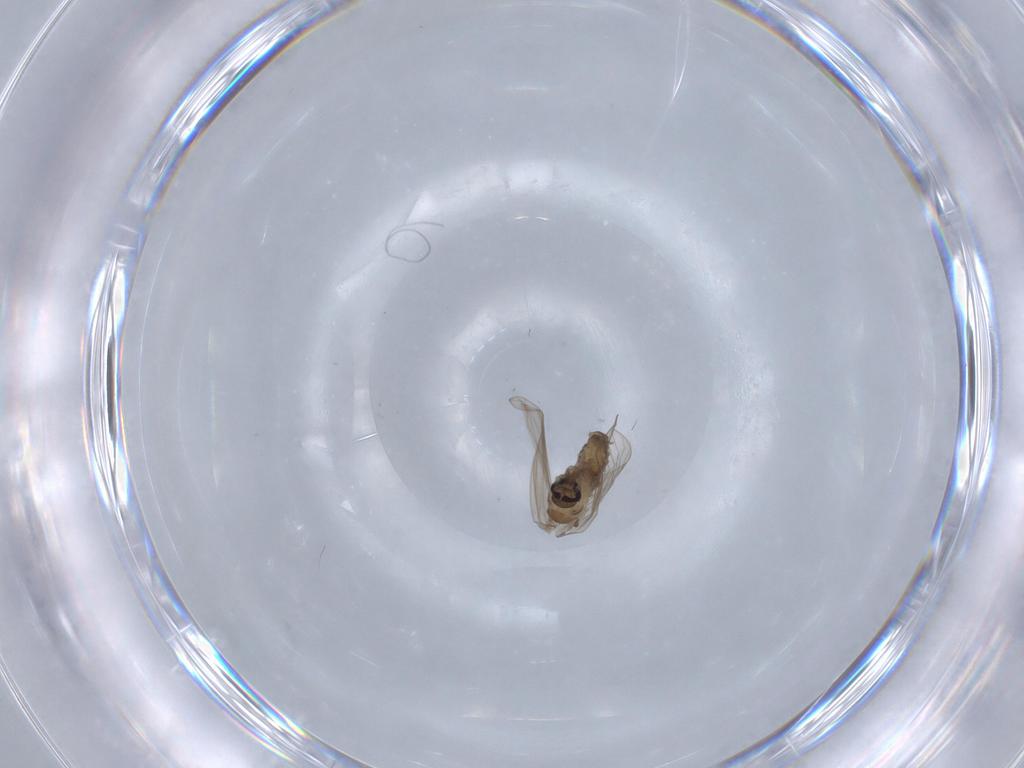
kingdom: Animalia
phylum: Arthropoda
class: Insecta
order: Diptera
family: Psychodidae
